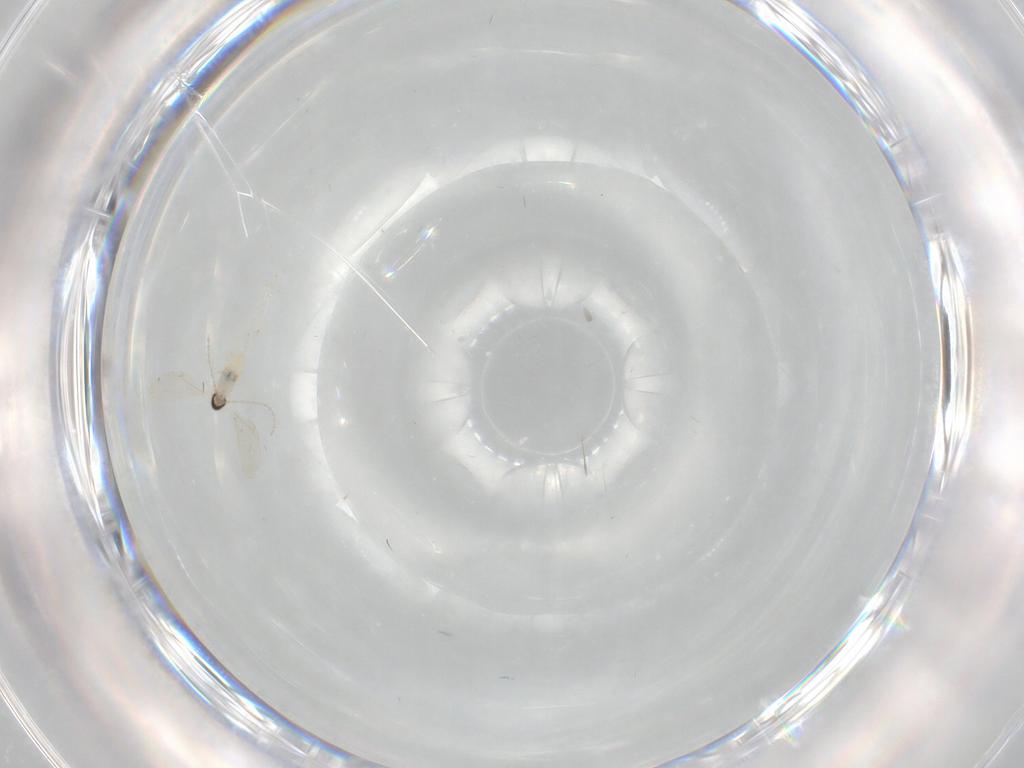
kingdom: Animalia
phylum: Arthropoda
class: Insecta
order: Diptera
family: Cecidomyiidae
